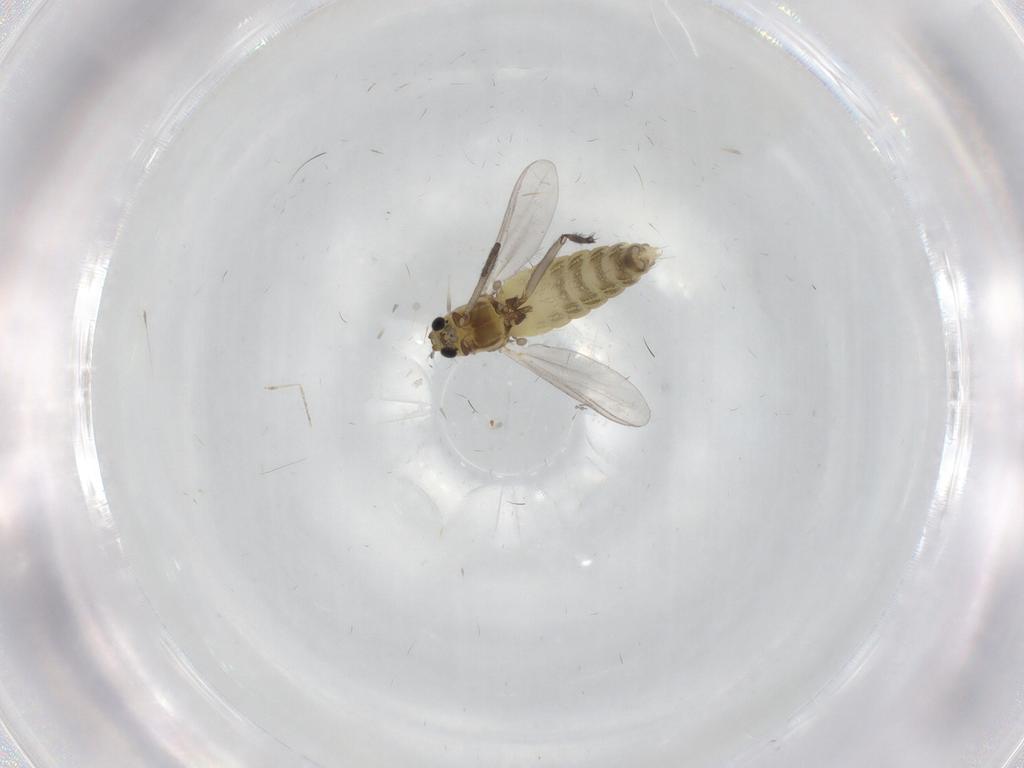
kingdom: Animalia
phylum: Arthropoda
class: Insecta
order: Diptera
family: Chironomidae
